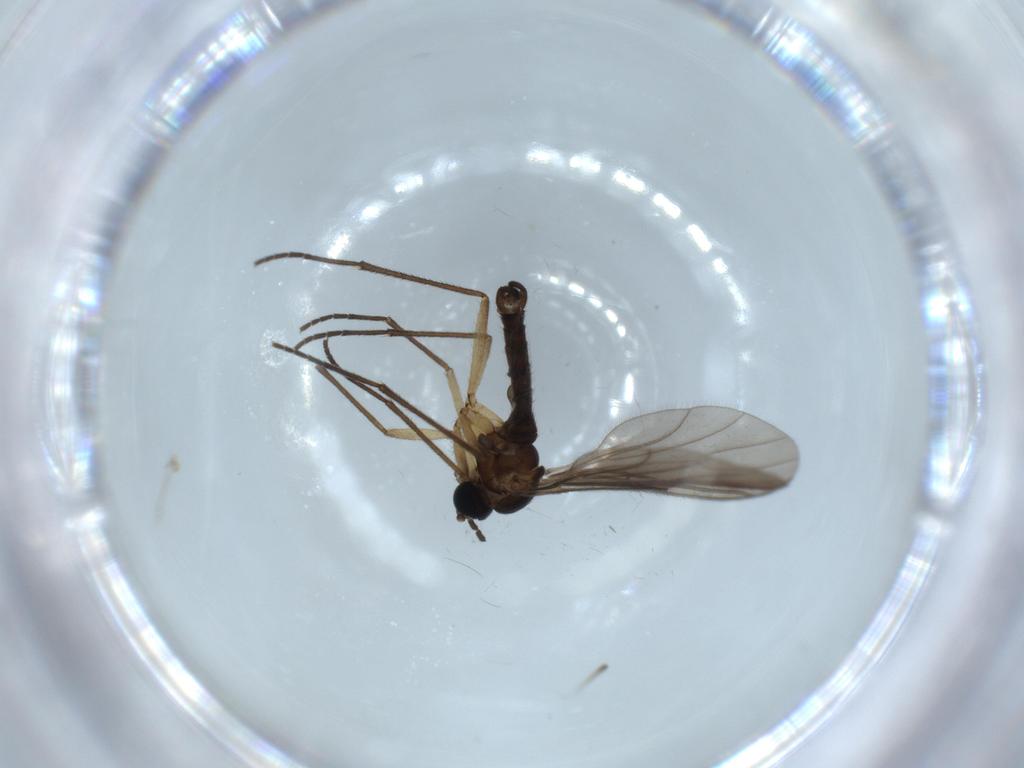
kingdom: Animalia
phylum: Arthropoda
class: Insecta
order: Diptera
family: Sciaridae
